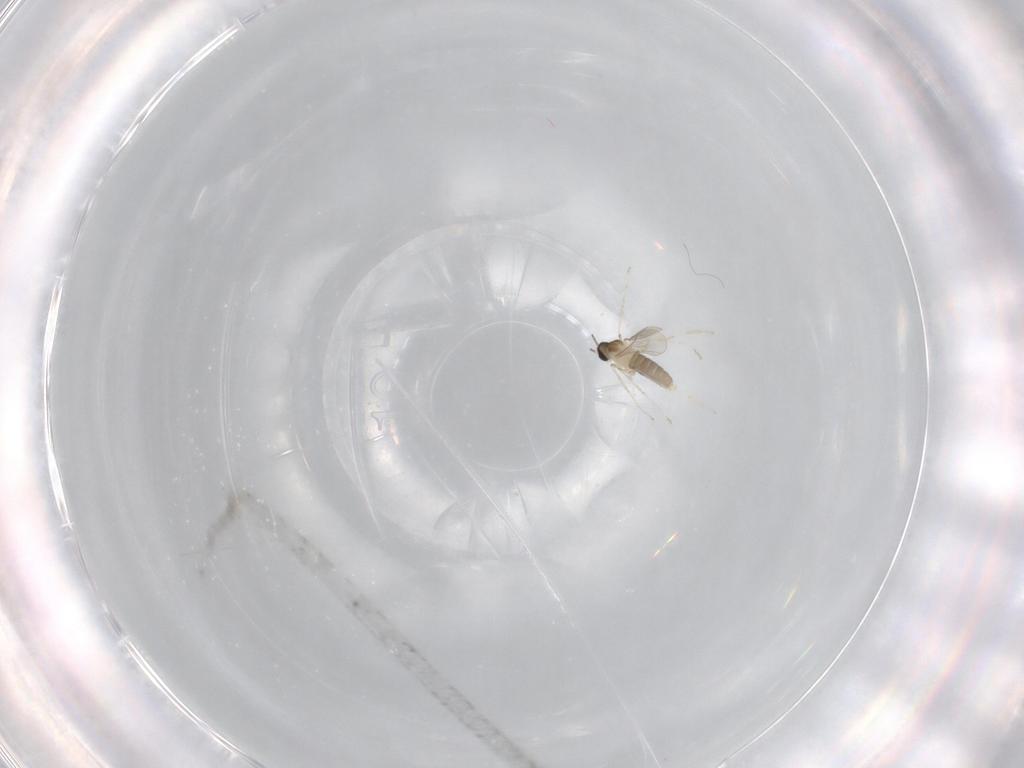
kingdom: Animalia
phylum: Arthropoda
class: Insecta
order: Diptera
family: Cecidomyiidae
